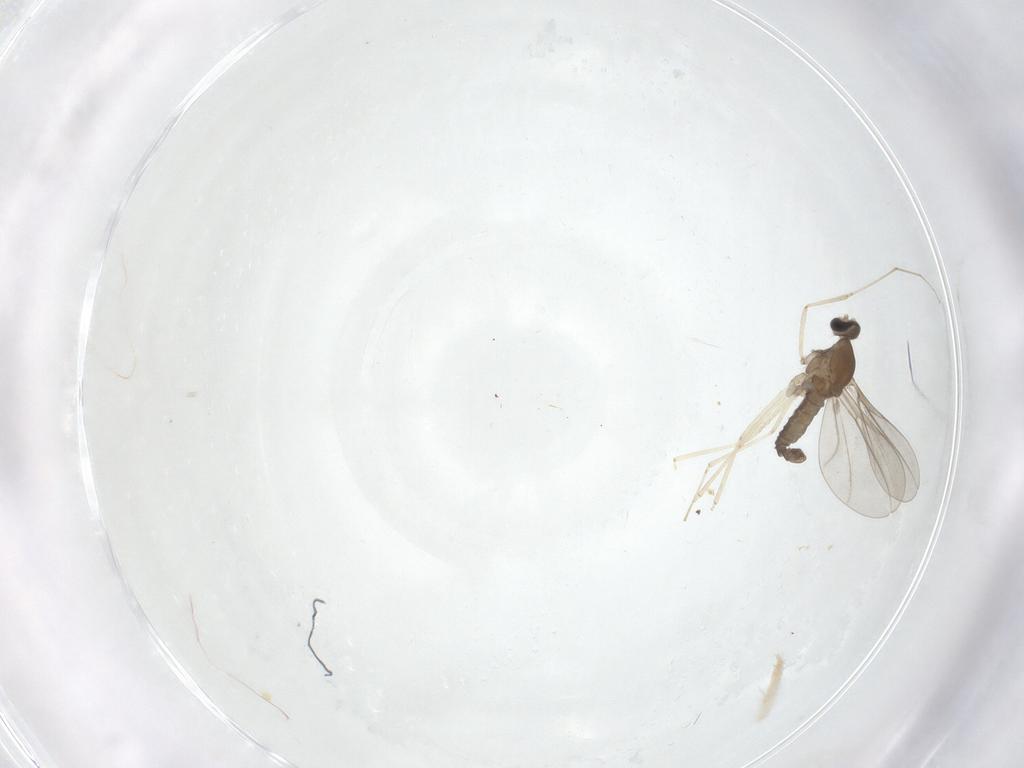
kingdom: Animalia
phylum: Arthropoda
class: Insecta
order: Diptera
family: Cecidomyiidae
